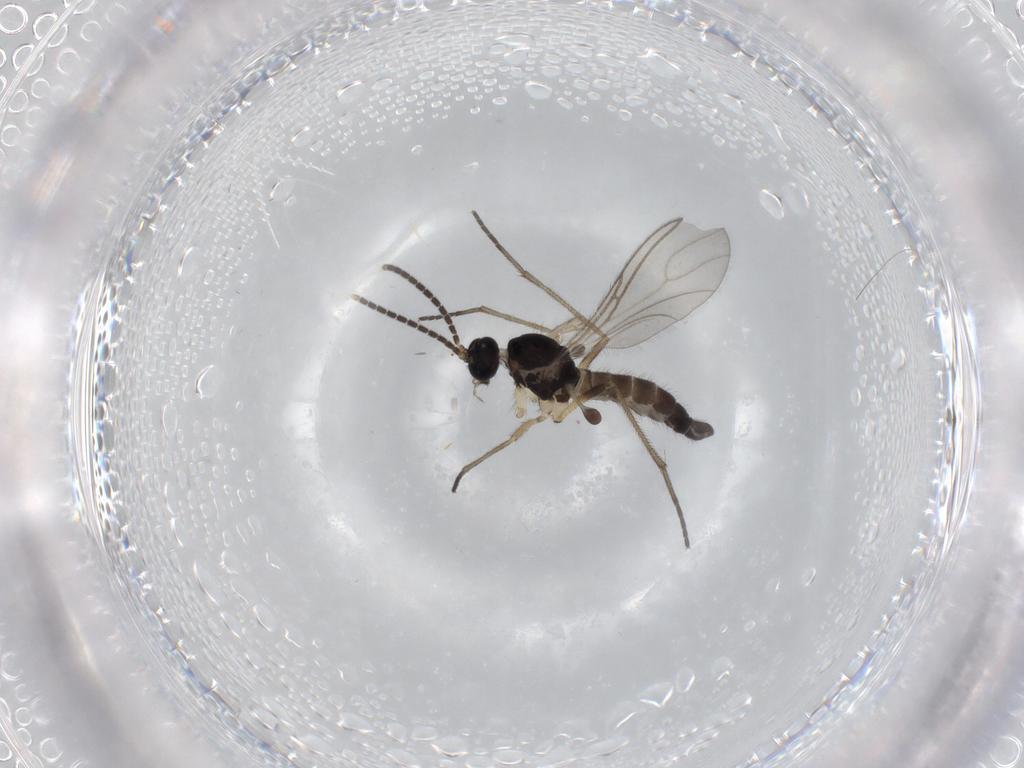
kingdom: Animalia
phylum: Arthropoda
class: Insecta
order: Diptera
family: Sciaridae
